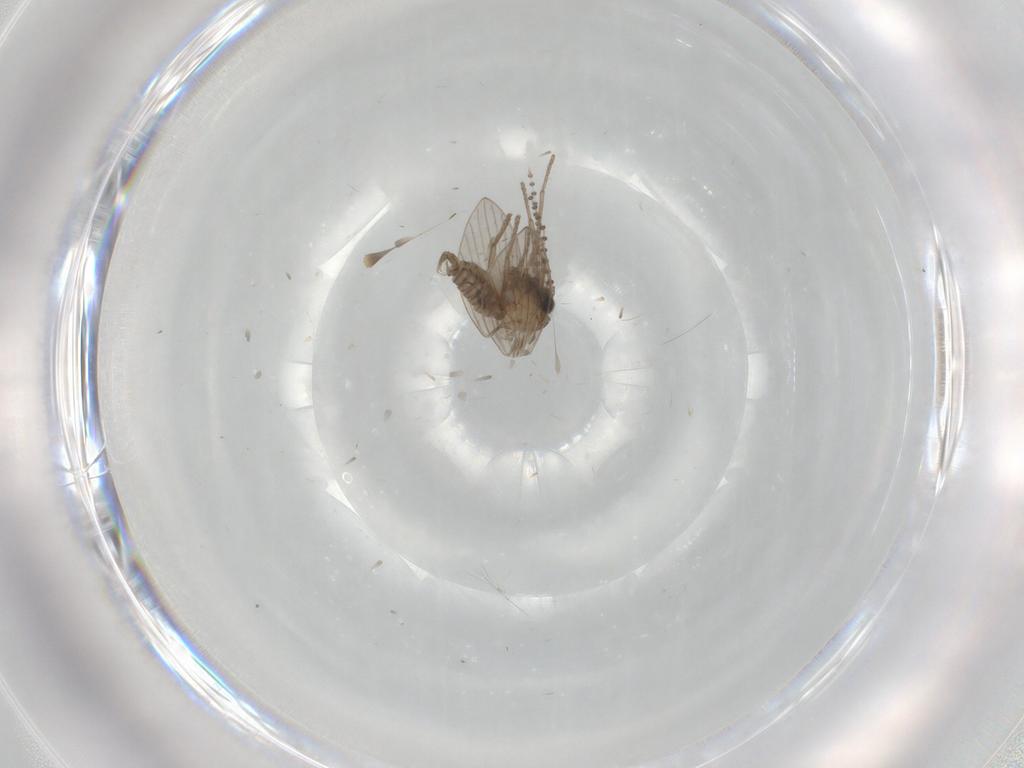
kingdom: Animalia
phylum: Arthropoda
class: Insecta
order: Diptera
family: Psychodidae
